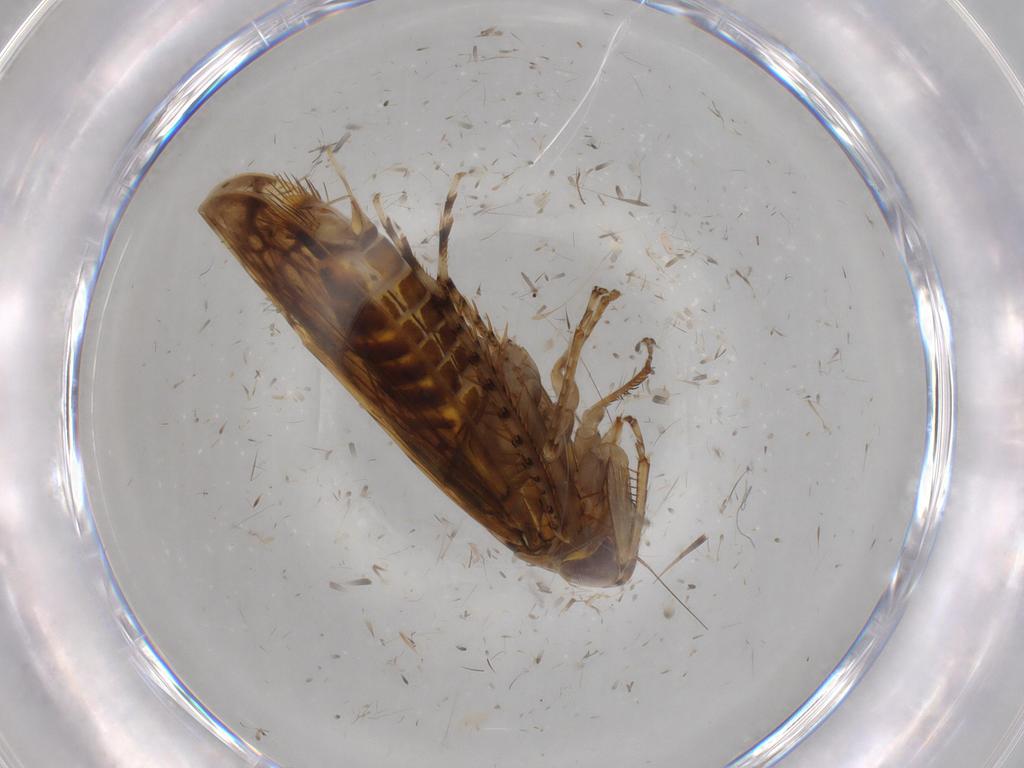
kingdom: Animalia
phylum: Arthropoda
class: Insecta
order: Hemiptera
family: Cicadellidae
